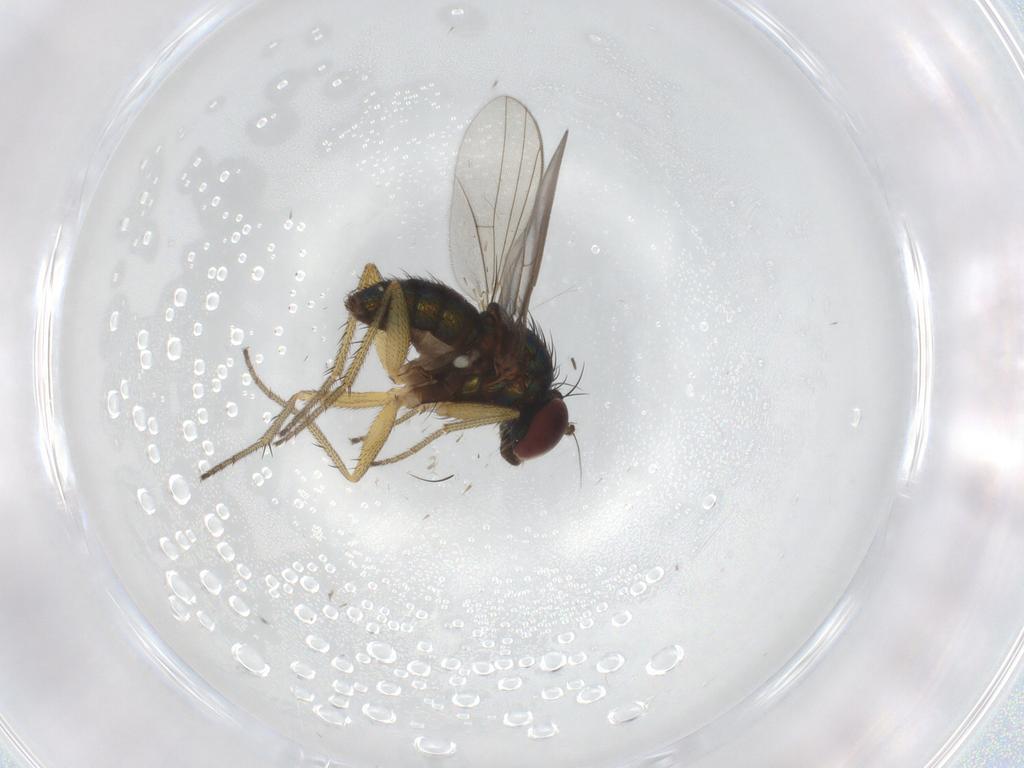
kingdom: Animalia
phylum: Arthropoda
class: Insecta
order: Diptera
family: Dolichopodidae
